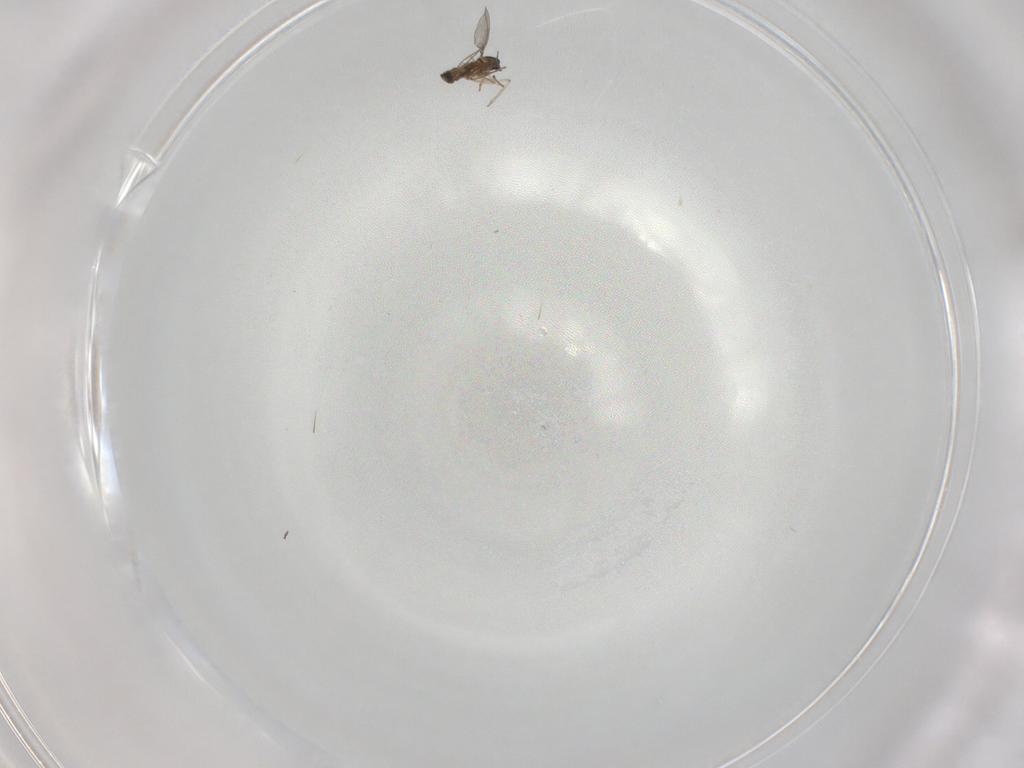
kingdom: Animalia
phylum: Arthropoda
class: Insecta
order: Diptera
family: Cecidomyiidae
